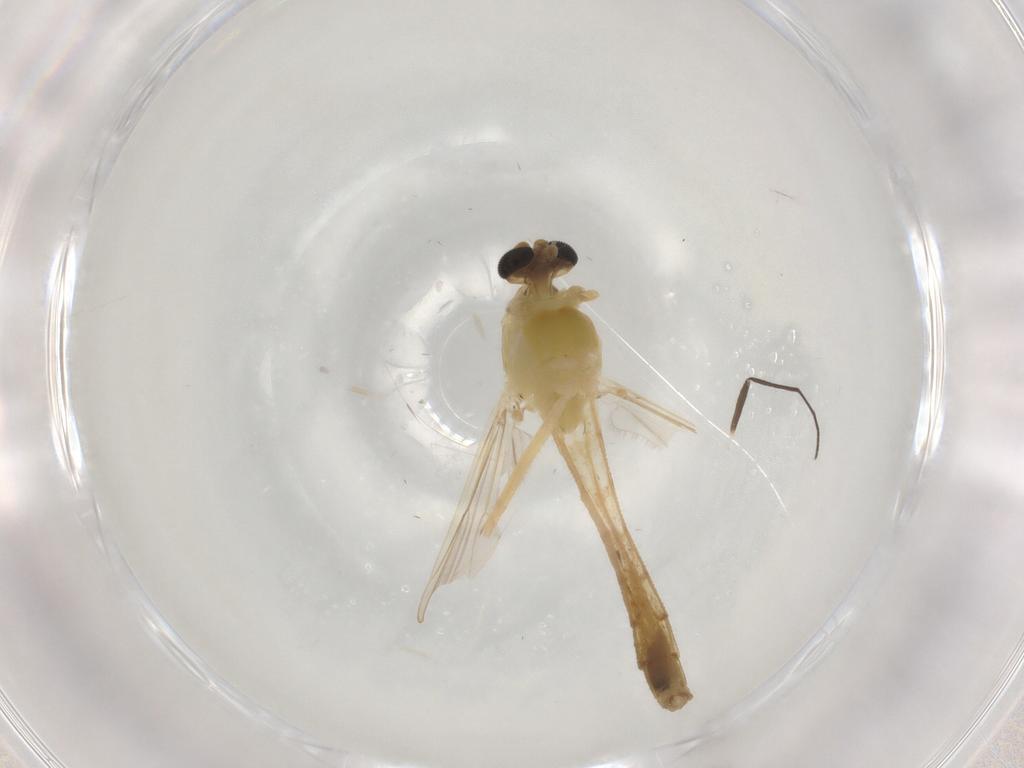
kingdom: Animalia
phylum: Arthropoda
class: Insecta
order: Diptera
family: Chironomidae
